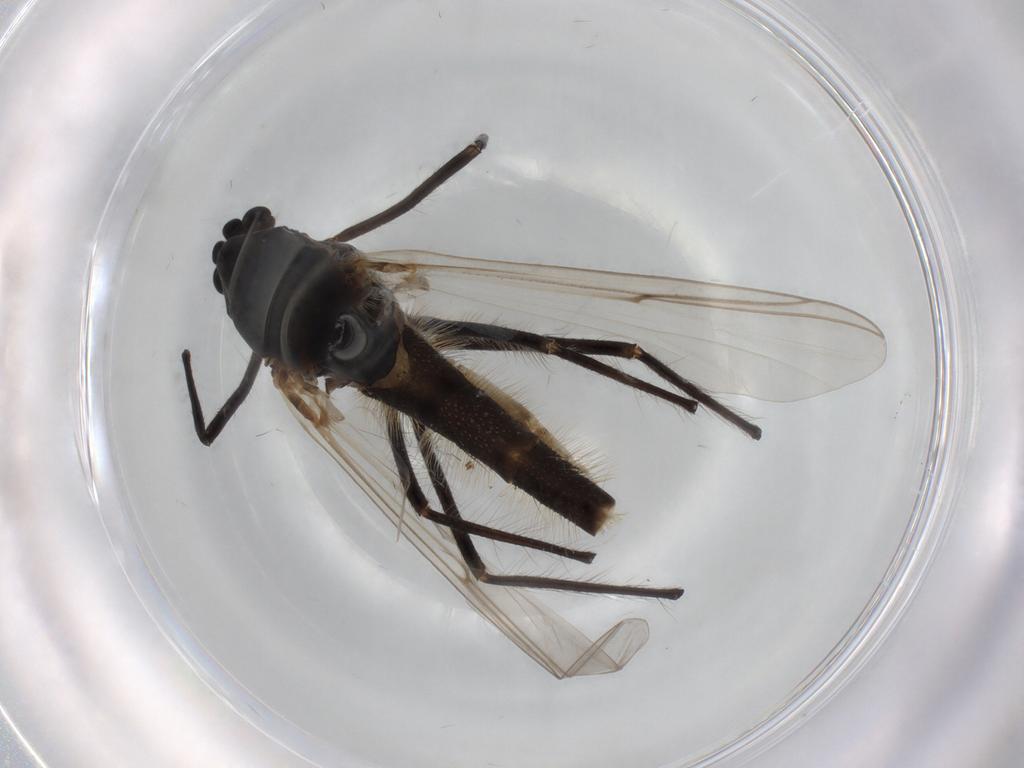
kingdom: Animalia
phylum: Arthropoda
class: Insecta
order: Diptera
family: Chironomidae
